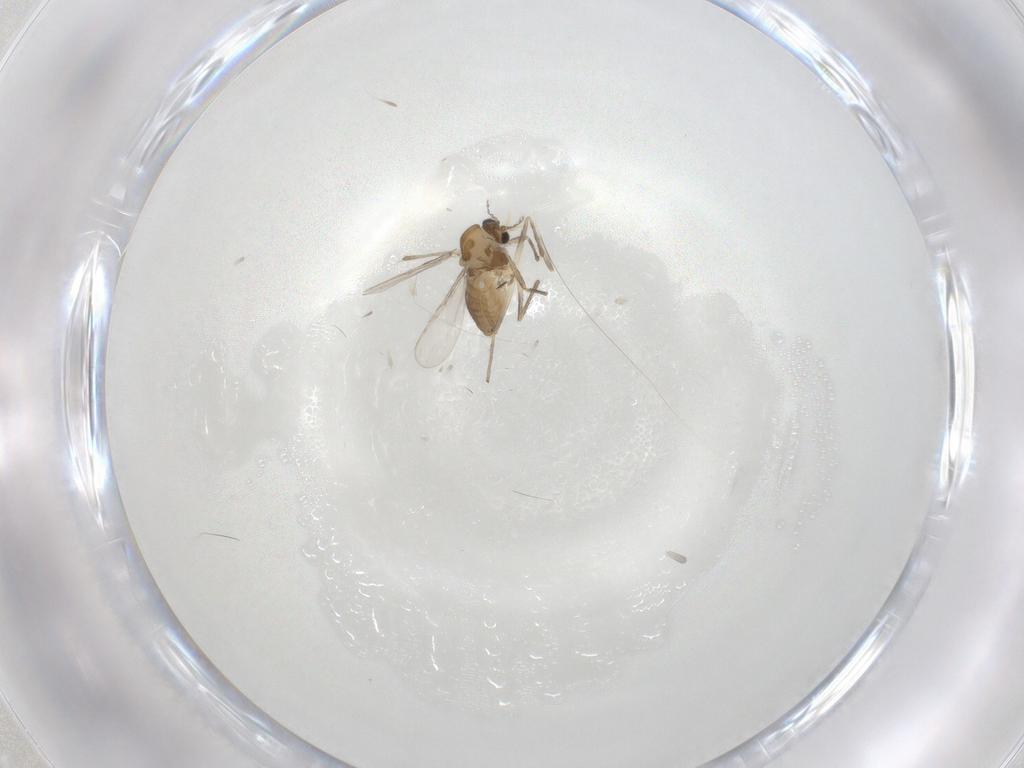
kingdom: Animalia
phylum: Arthropoda
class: Insecta
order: Diptera
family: Chironomidae
